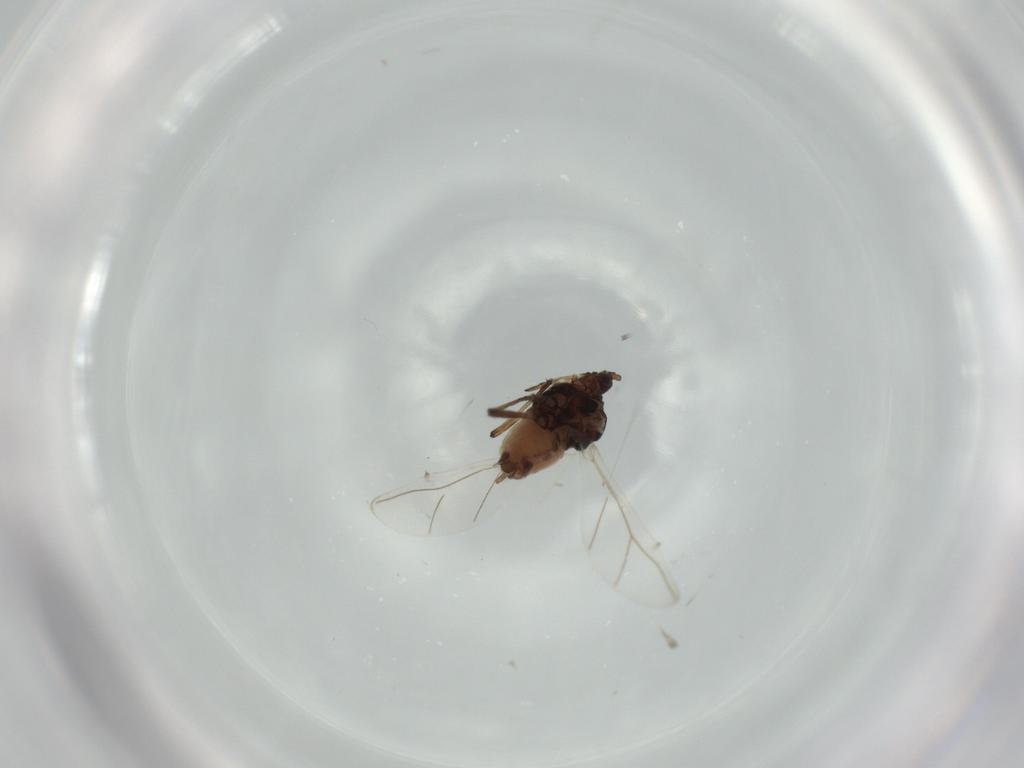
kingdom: Animalia
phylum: Arthropoda
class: Insecta
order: Hemiptera
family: Aphididae
